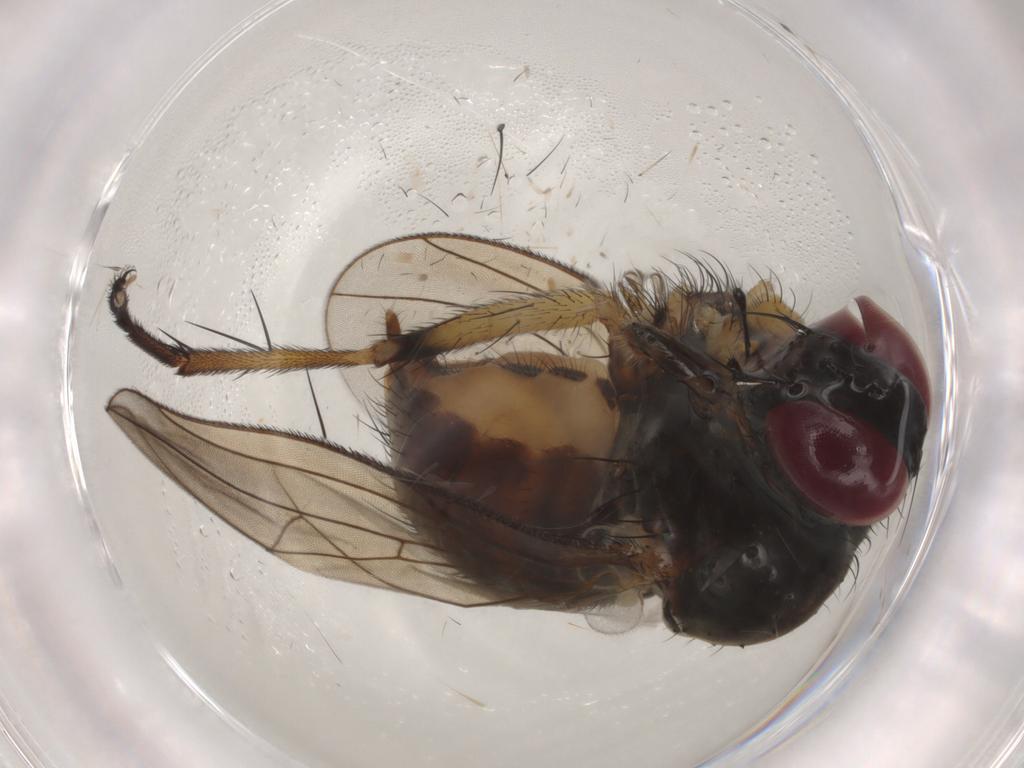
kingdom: Animalia
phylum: Arthropoda
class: Insecta
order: Diptera
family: Muscidae
